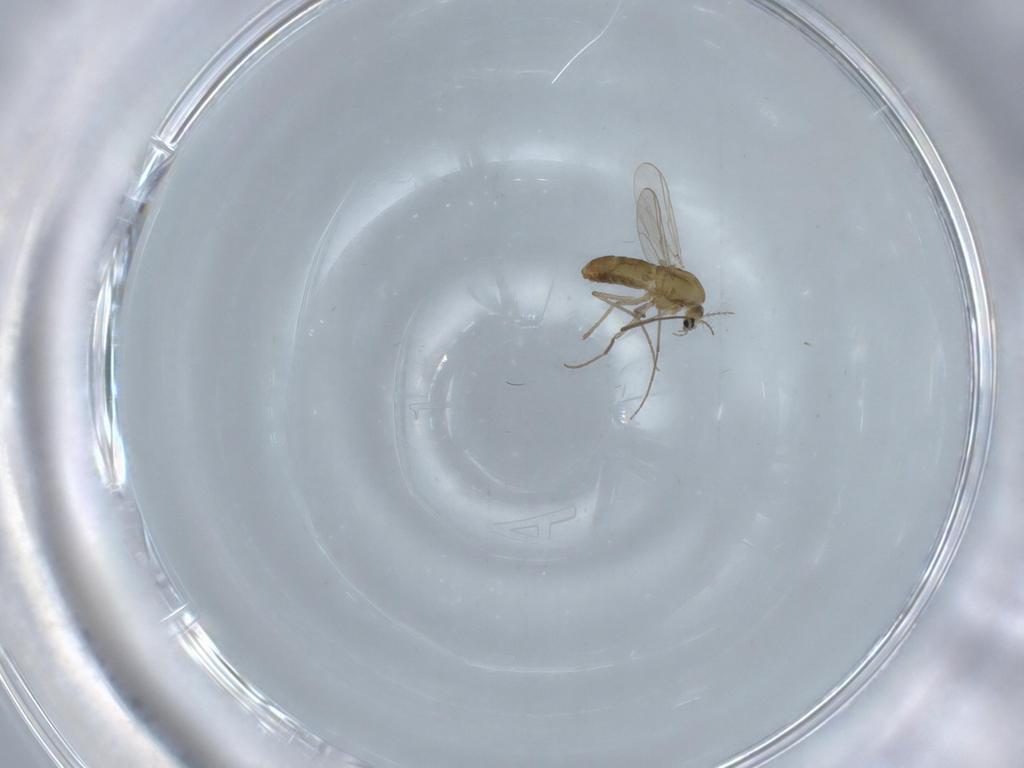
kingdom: Animalia
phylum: Arthropoda
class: Insecta
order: Diptera
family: Chironomidae
